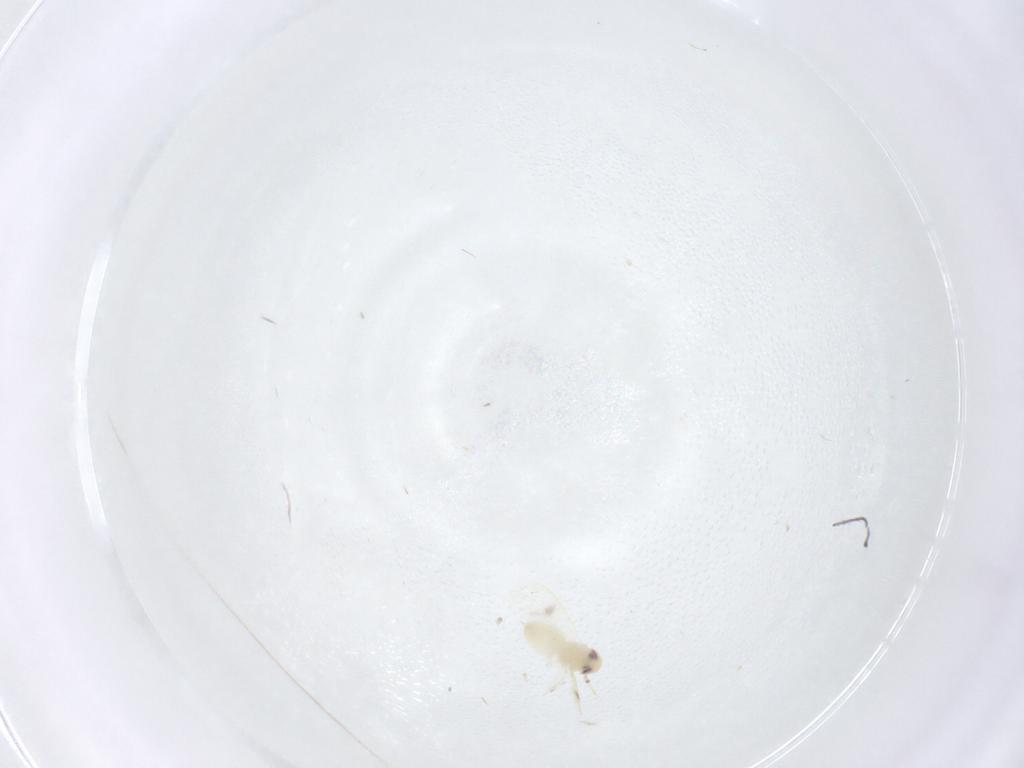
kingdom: Animalia
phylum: Arthropoda
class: Insecta
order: Hemiptera
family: Aleyrodidae
